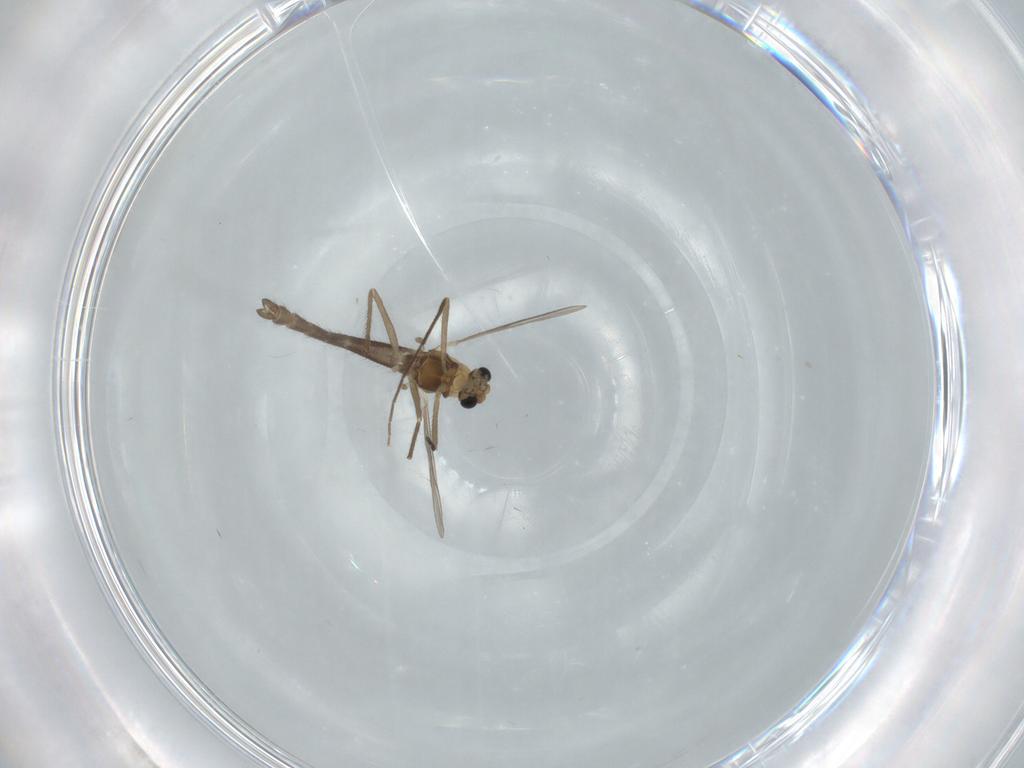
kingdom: Animalia
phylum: Arthropoda
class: Insecta
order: Diptera
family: Chironomidae
